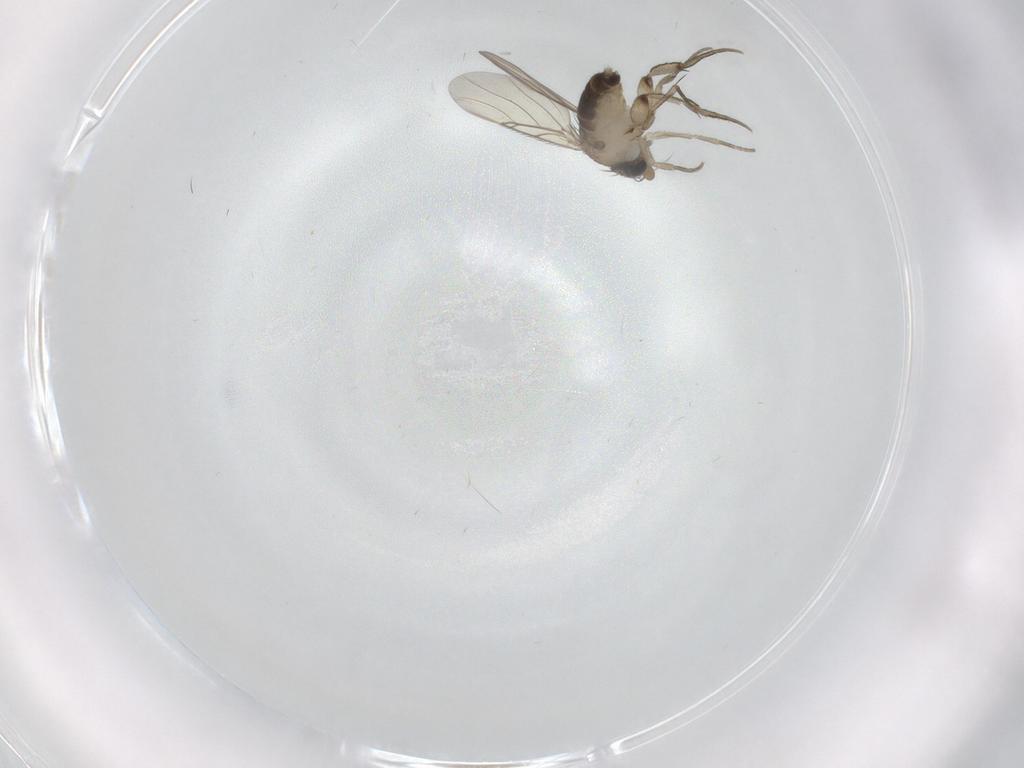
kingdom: Animalia
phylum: Arthropoda
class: Insecta
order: Diptera
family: Phoridae
